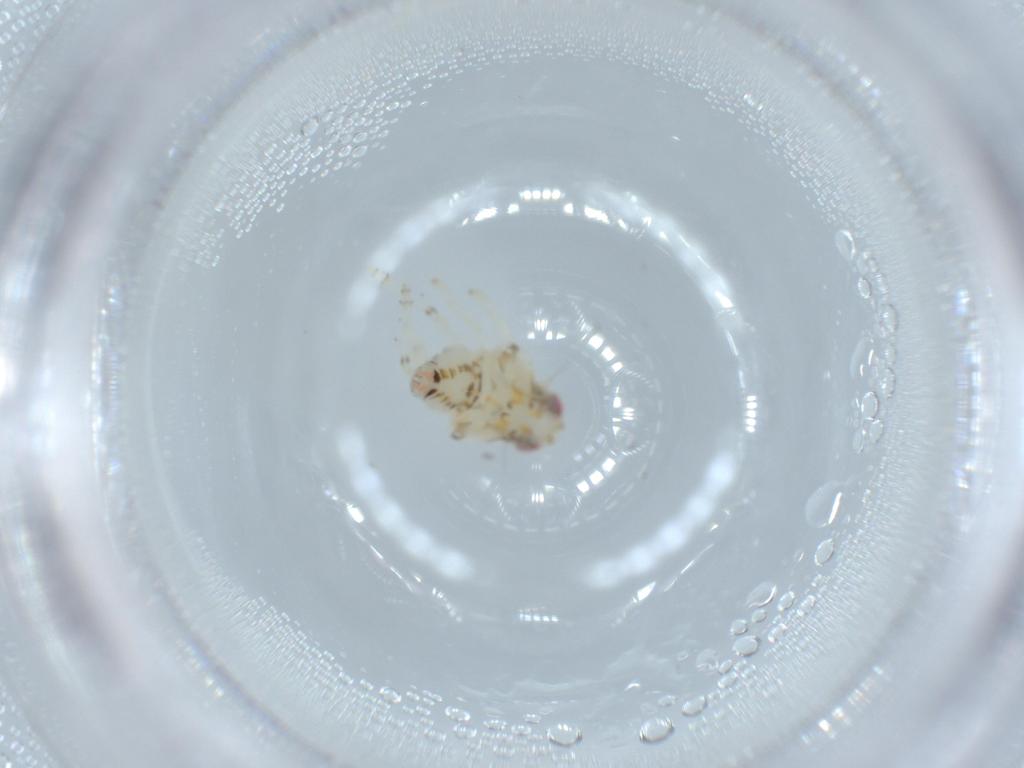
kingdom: Animalia
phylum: Arthropoda
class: Insecta
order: Hemiptera
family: Nogodinidae
